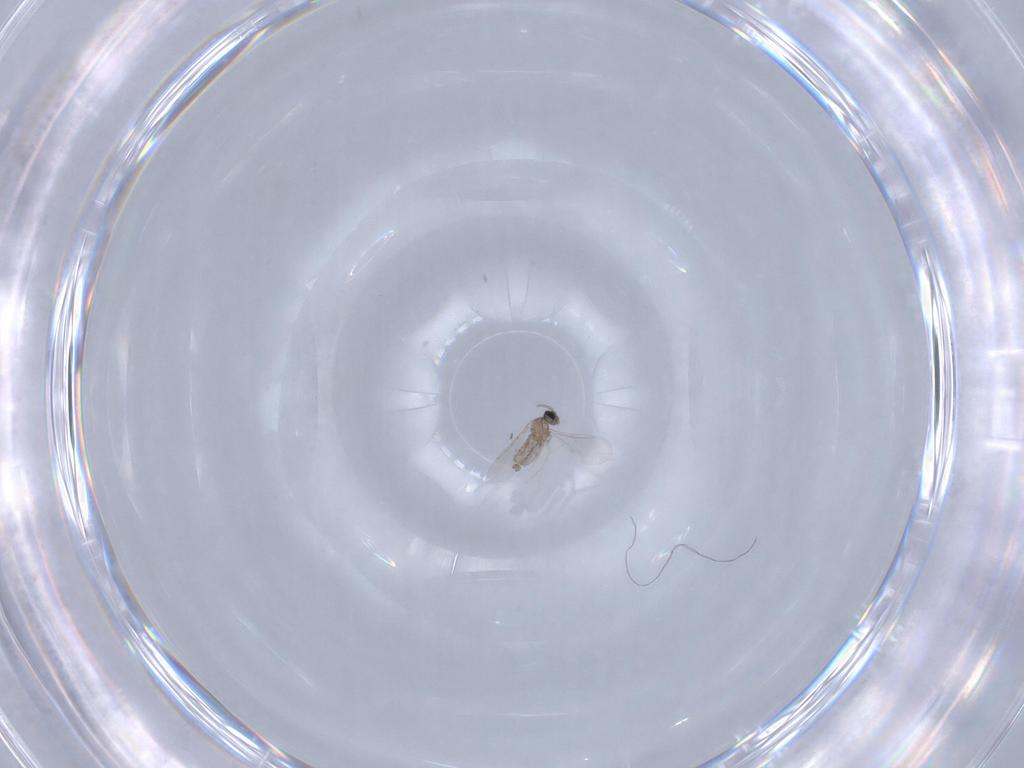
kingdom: Animalia
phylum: Arthropoda
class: Insecta
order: Diptera
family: Cecidomyiidae
